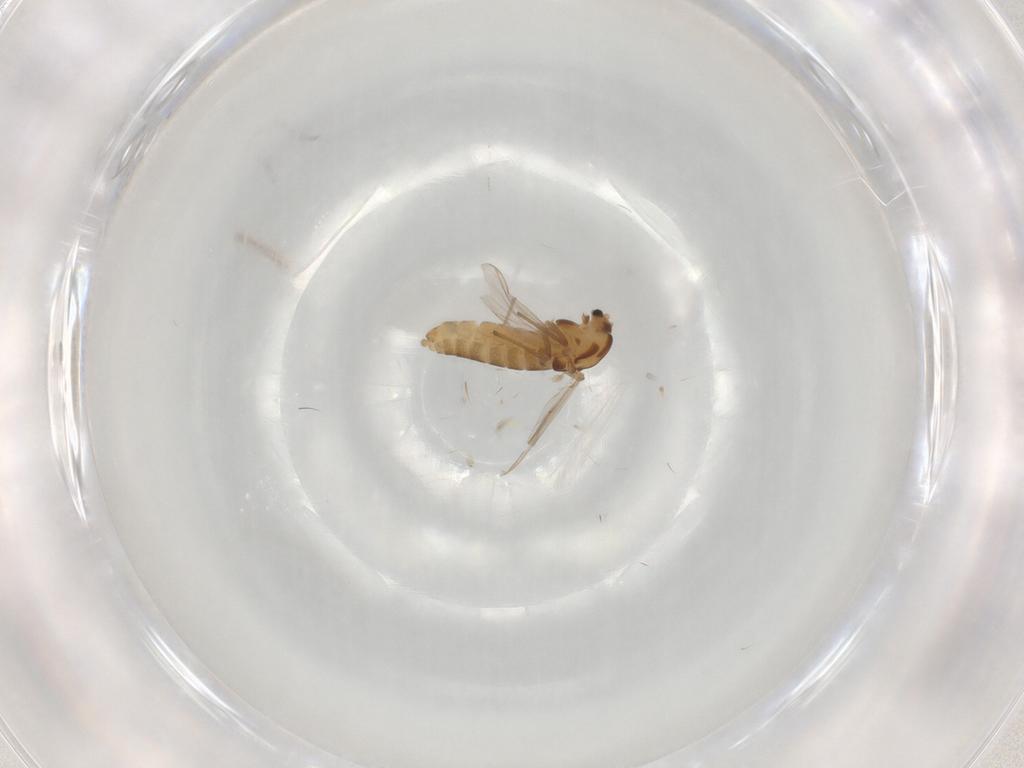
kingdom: Animalia
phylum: Arthropoda
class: Insecta
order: Diptera
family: Chironomidae
